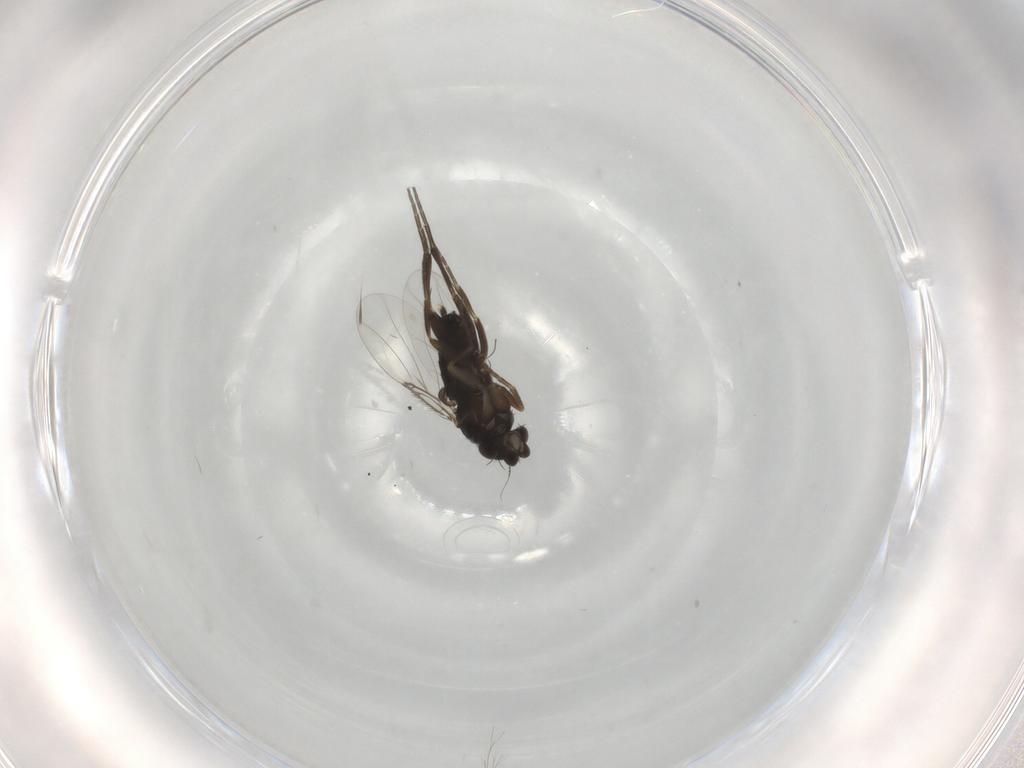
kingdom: Animalia
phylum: Arthropoda
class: Insecta
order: Diptera
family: Phoridae
